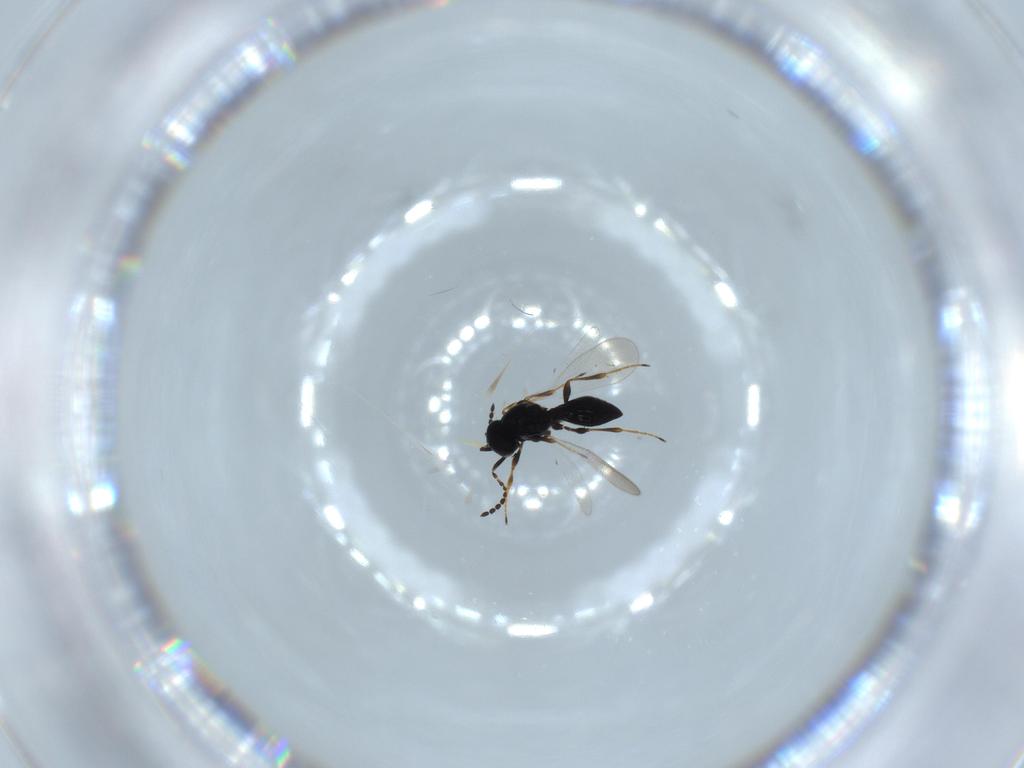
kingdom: Animalia
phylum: Arthropoda
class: Insecta
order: Hymenoptera
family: Platygastridae
